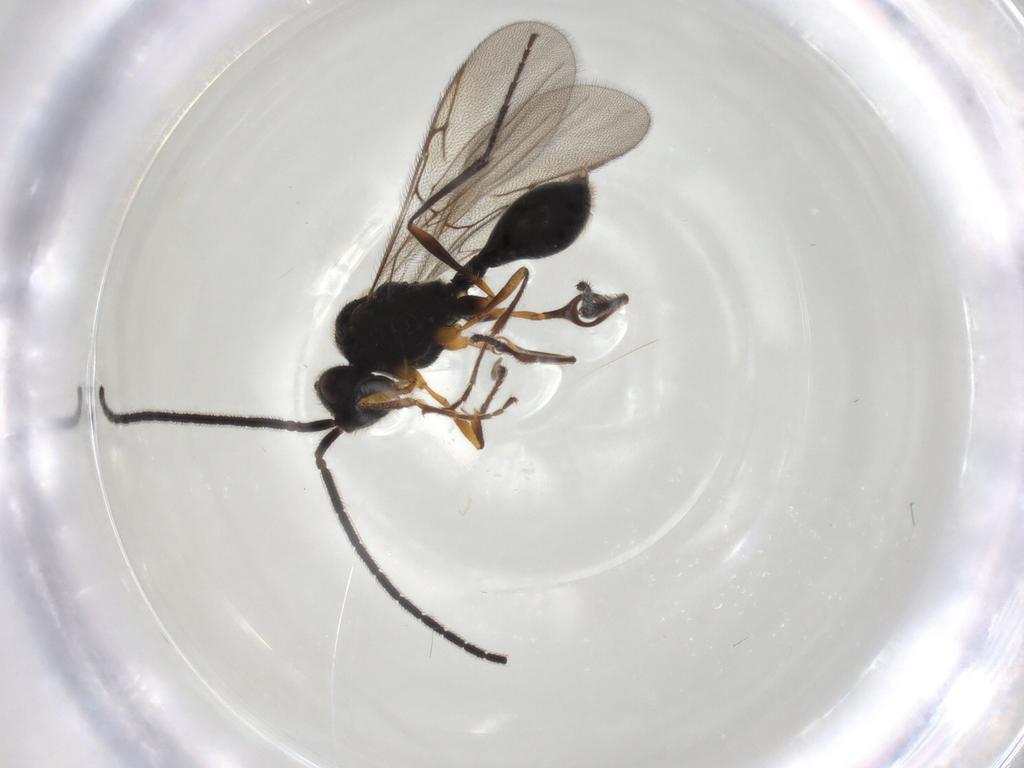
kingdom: Animalia
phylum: Arthropoda
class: Insecta
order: Hymenoptera
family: Diapriidae
